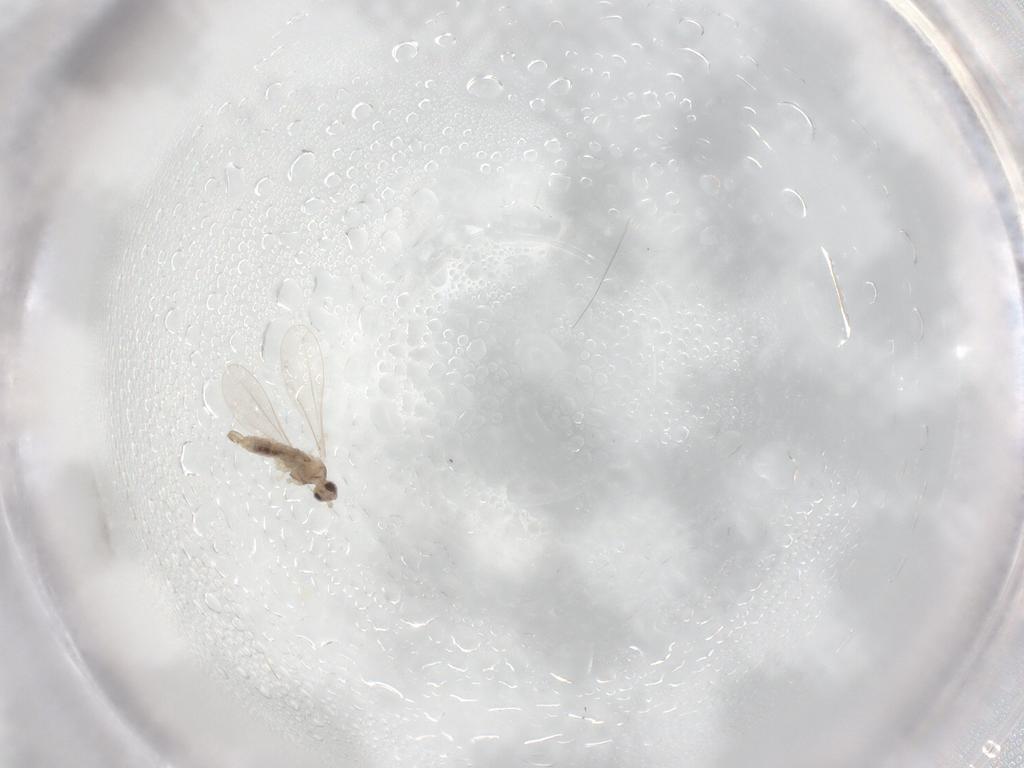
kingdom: Animalia
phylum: Arthropoda
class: Insecta
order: Diptera
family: Cecidomyiidae
